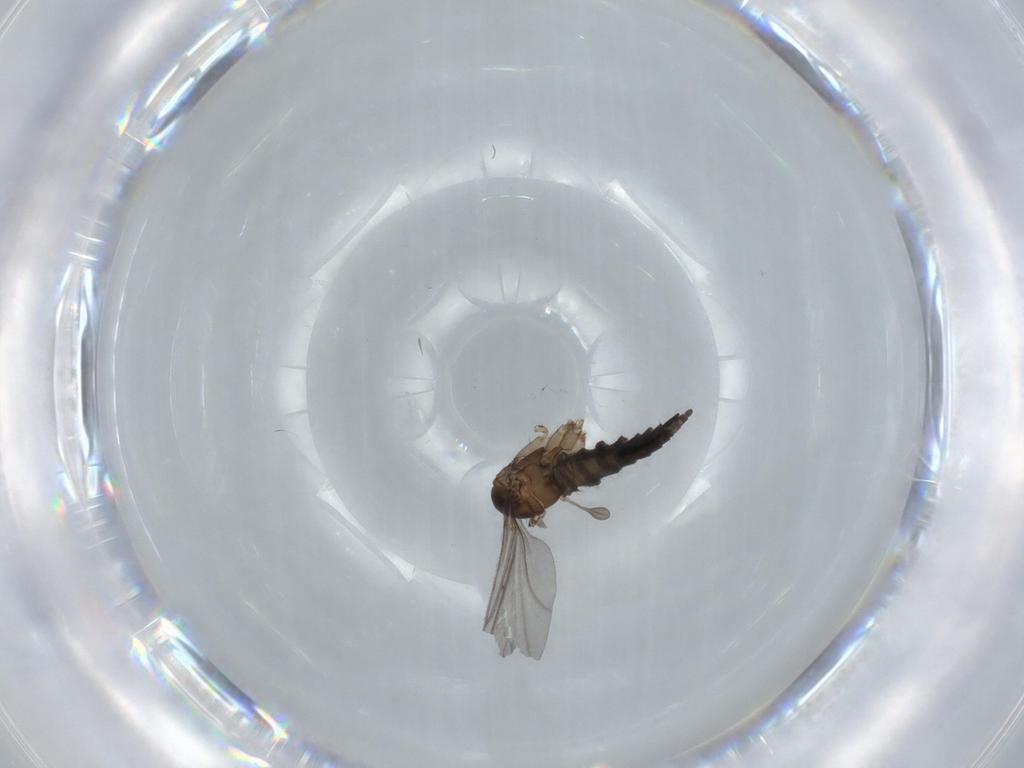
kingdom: Animalia
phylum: Arthropoda
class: Insecta
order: Diptera
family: Sciaridae
